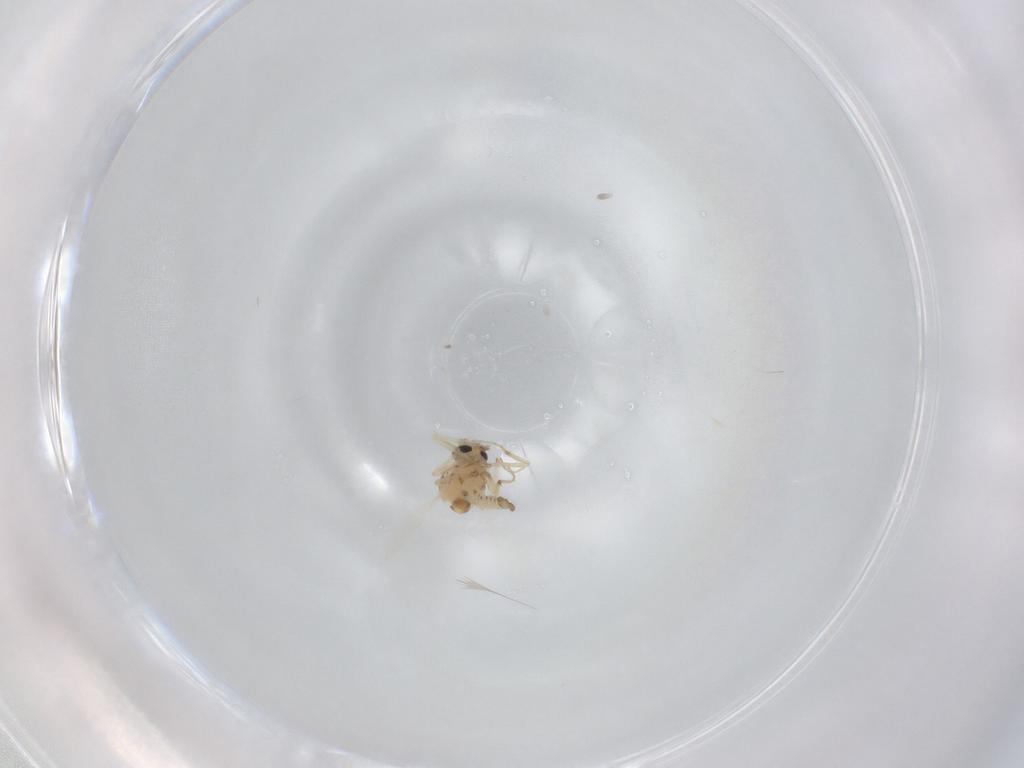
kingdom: Animalia
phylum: Arthropoda
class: Insecta
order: Diptera
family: Ceratopogonidae
